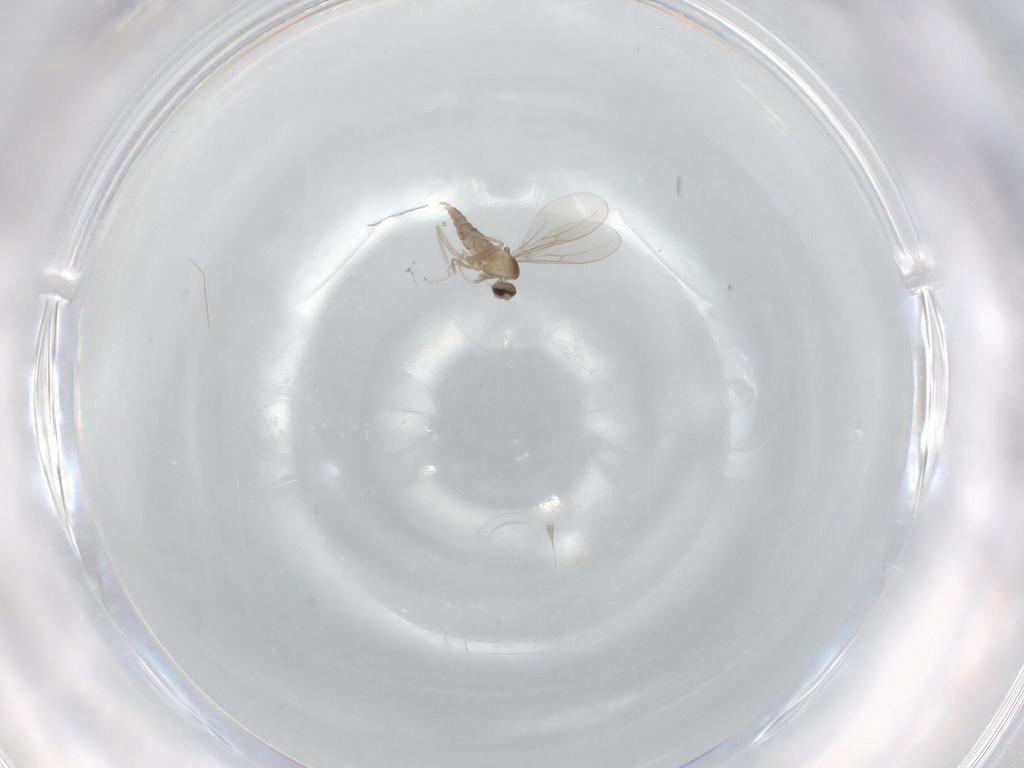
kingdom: Animalia
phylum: Arthropoda
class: Insecta
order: Diptera
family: Cecidomyiidae
